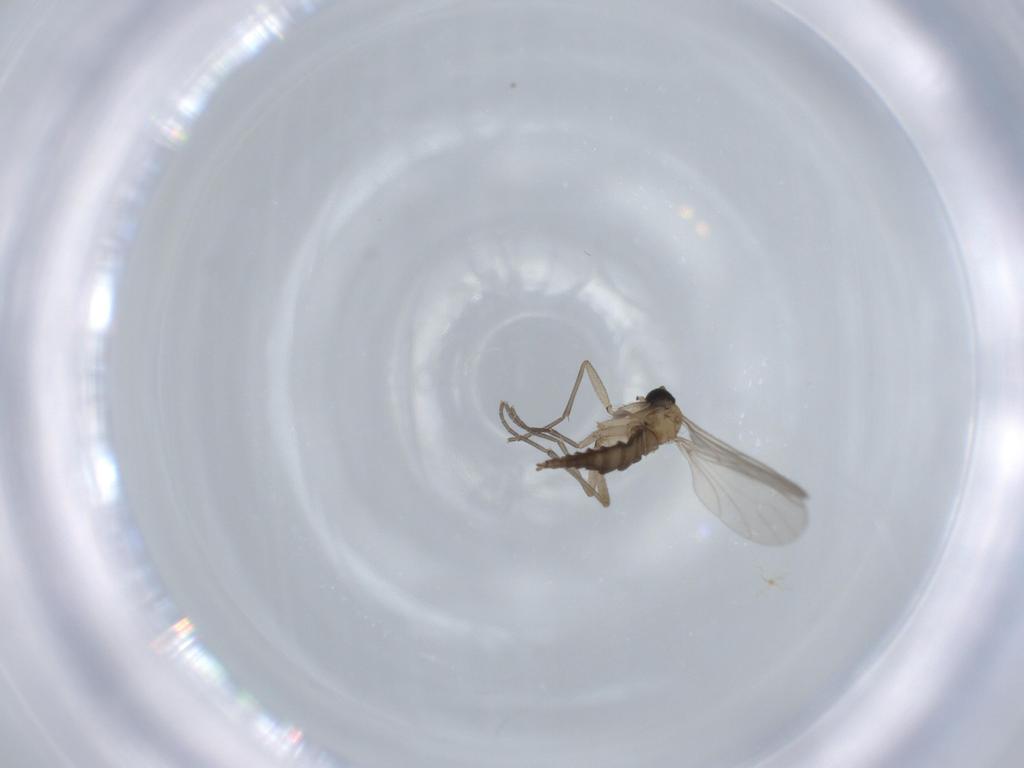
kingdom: Animalia
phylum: Arthropoda
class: Insecta
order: Diptera
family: Sciaridae
